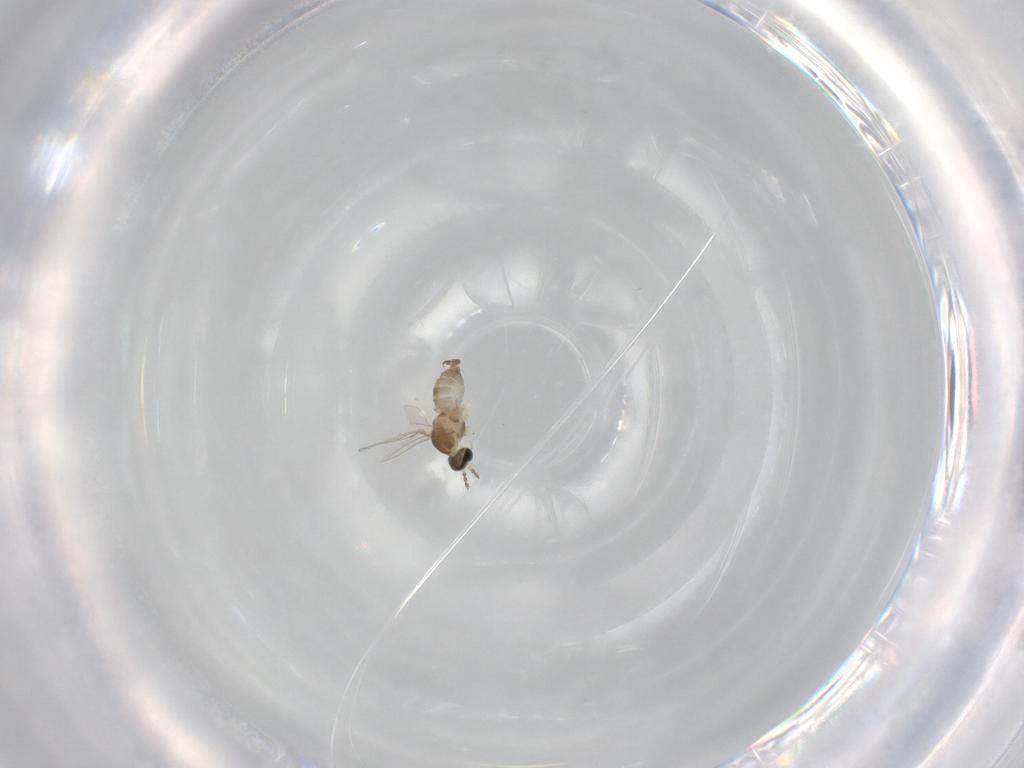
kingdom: Animalia
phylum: Arthropoda
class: Insecta
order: Diptera
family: Cecidomyiidae
